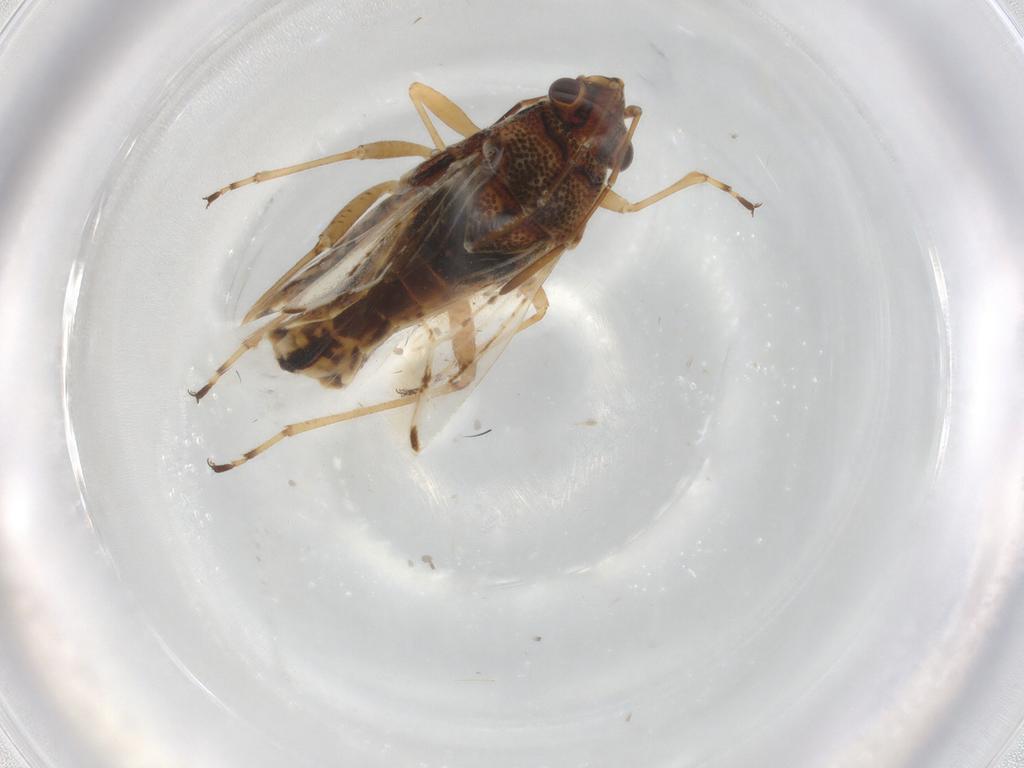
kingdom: Animalia
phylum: Arthropoda
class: Insecta
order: Hemiptera
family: Lygaeidae
